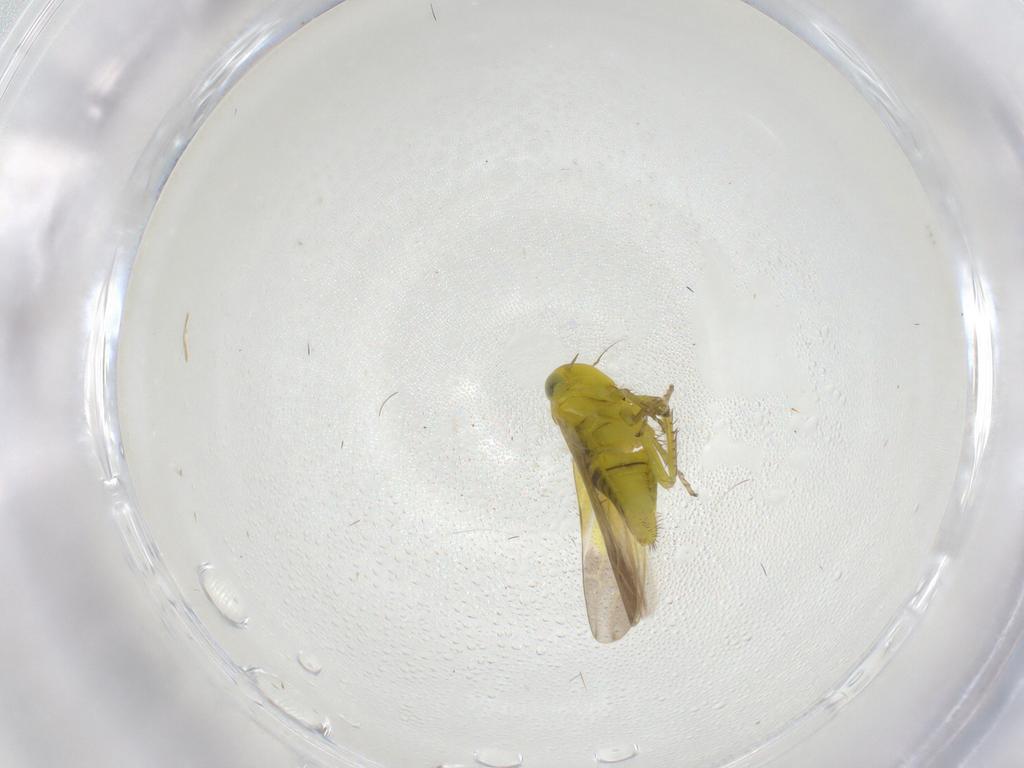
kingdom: Animalia
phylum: Arthropoda
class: Insecta
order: Hemiptera
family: Cicadellidae
